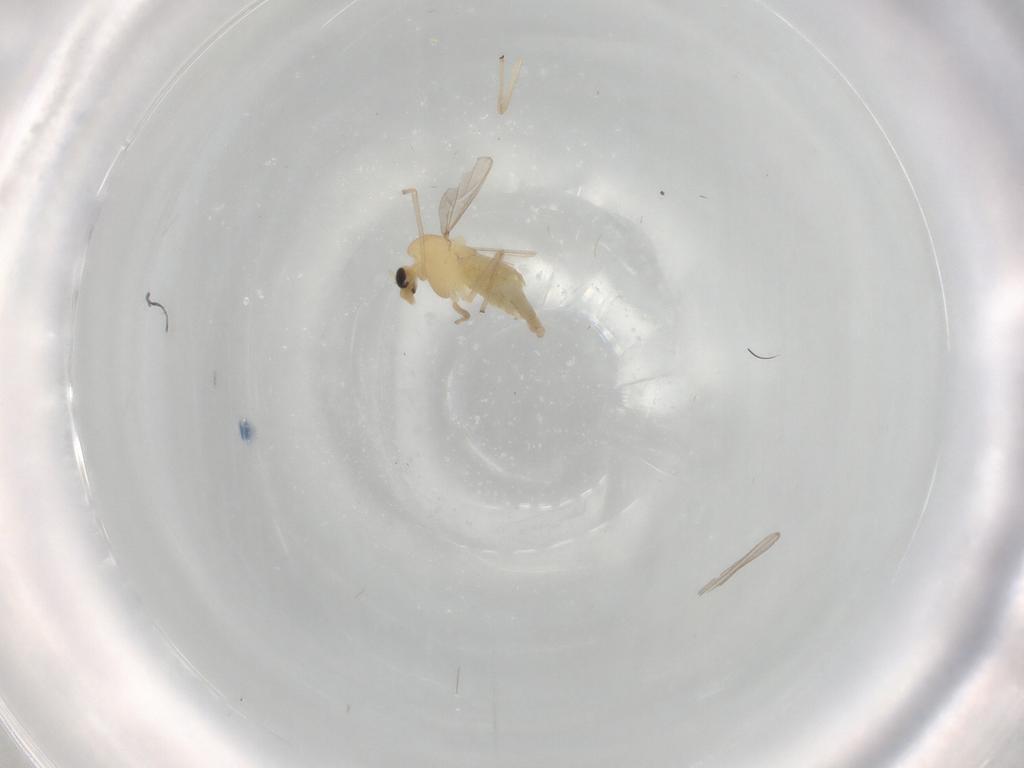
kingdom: Animalia
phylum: Arthropoda
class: Insecta
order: Diptera
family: Chironomidae
